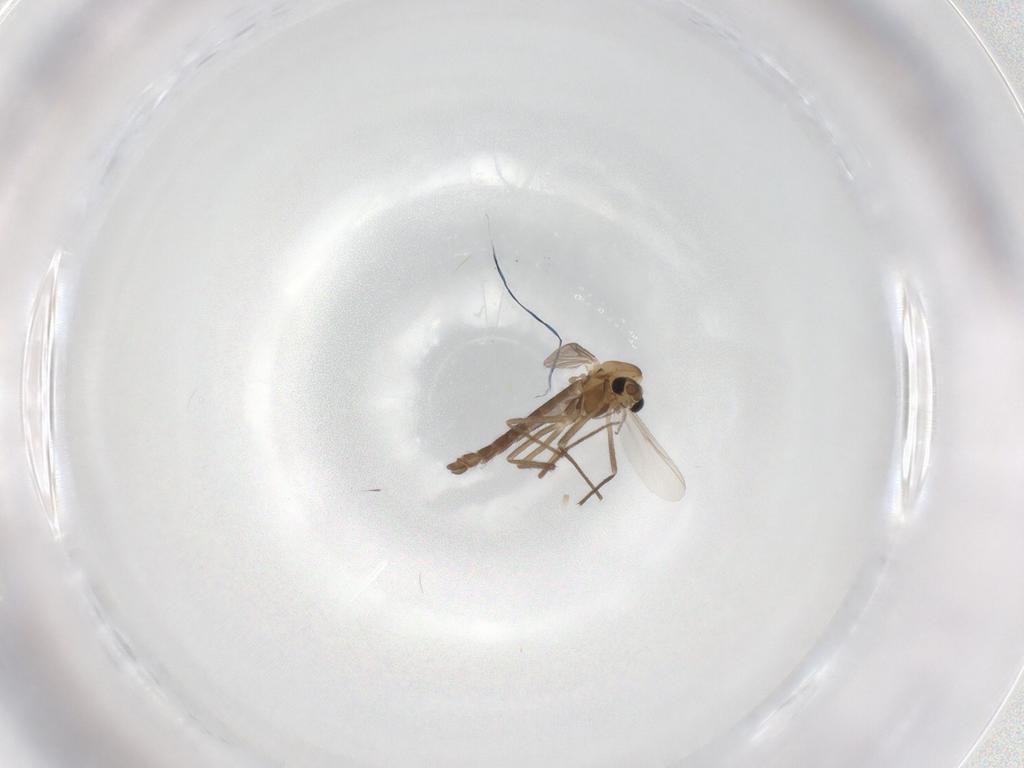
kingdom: Animalia
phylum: Arthropoda
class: Insecta
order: Diptera
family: Chironomidae
